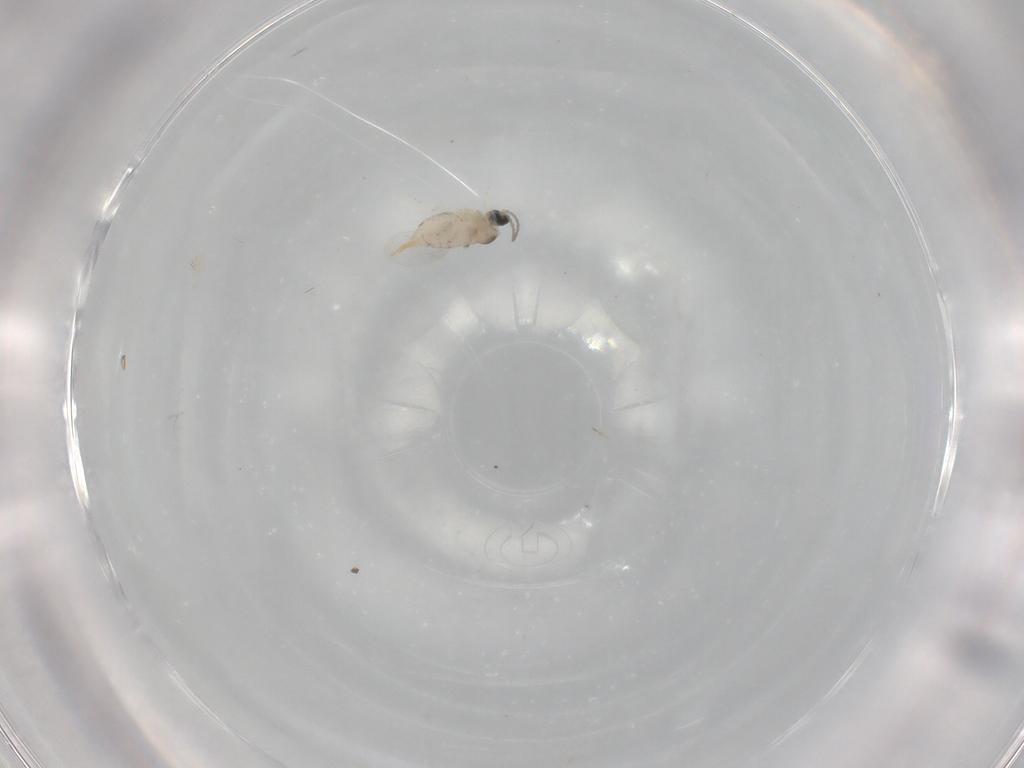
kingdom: Animalia
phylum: Arthropoda
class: Insecta
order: Diptera
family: Cecidomyiidae
